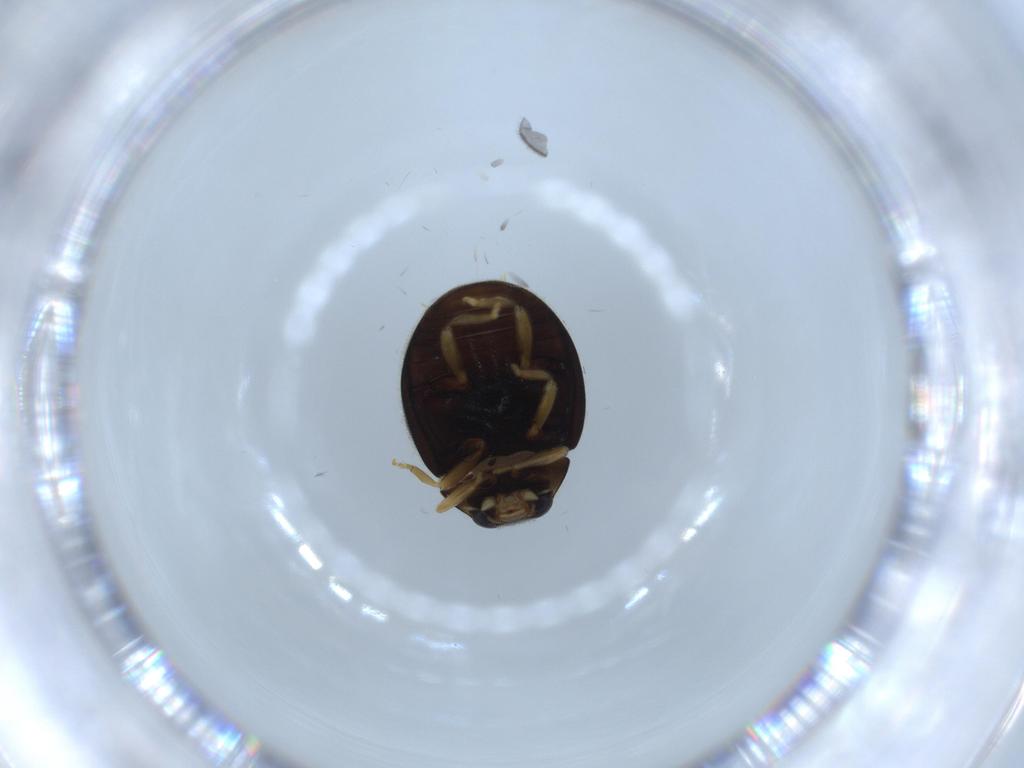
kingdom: Animalia
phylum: Arthropoda
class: Insecta
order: Coleoptera
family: Coccinellidae
